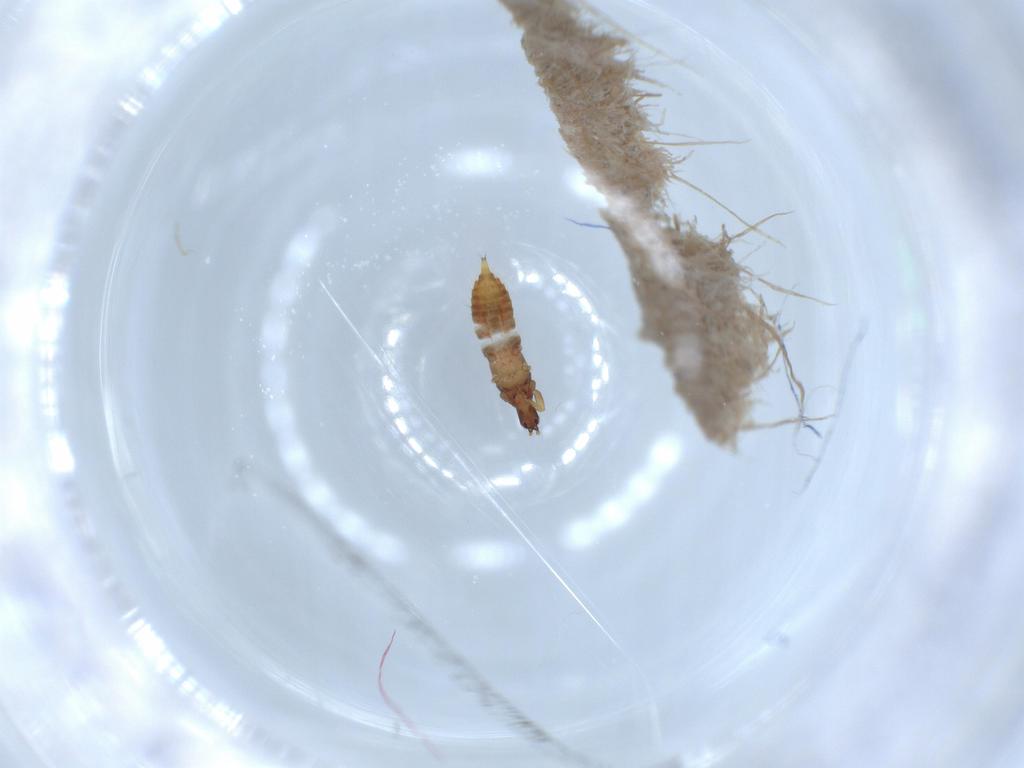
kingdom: Animalia
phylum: Arthropoda
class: Insecta
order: Thysanoptera
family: Phlaeothripidae
